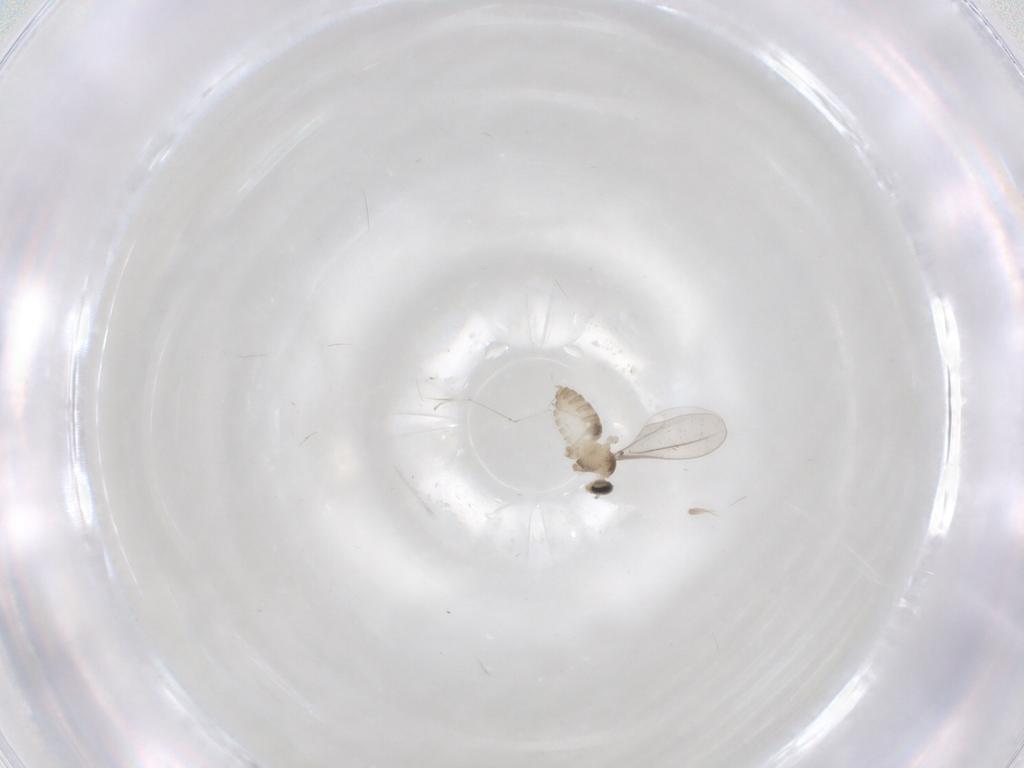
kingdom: Animalia
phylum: Arthropoda
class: Insecta
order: Diptera
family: Cecidomyiidae
